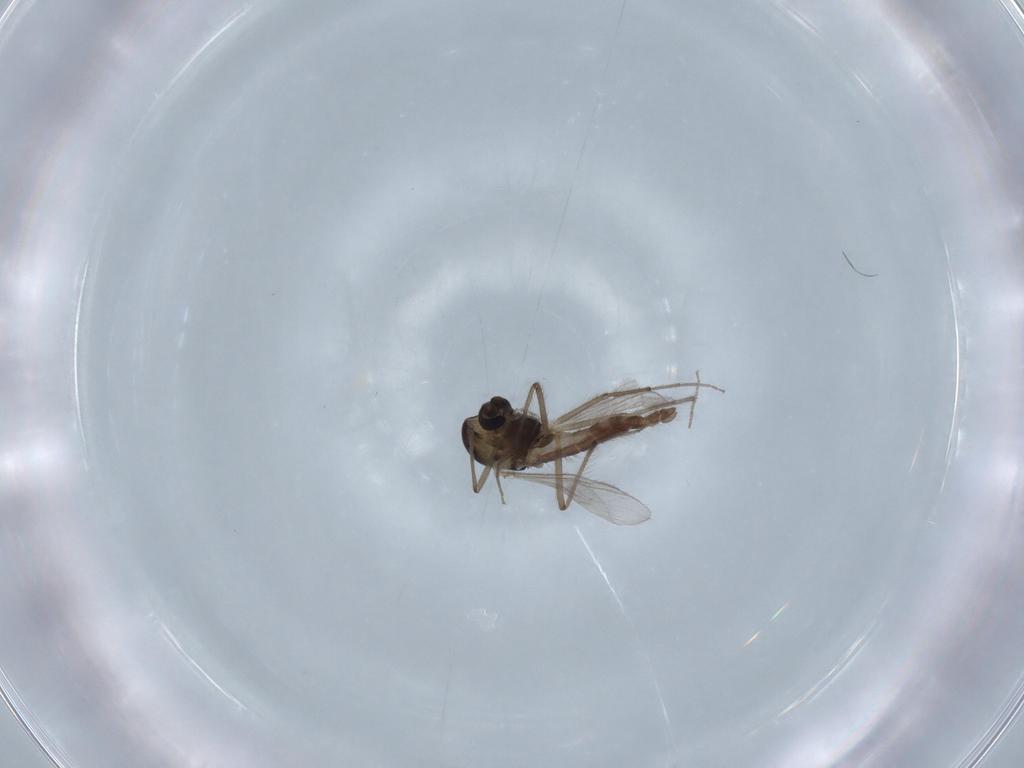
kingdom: Animalia
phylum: Arthropoda
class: Insecta
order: Diptera
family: Chironomidae
